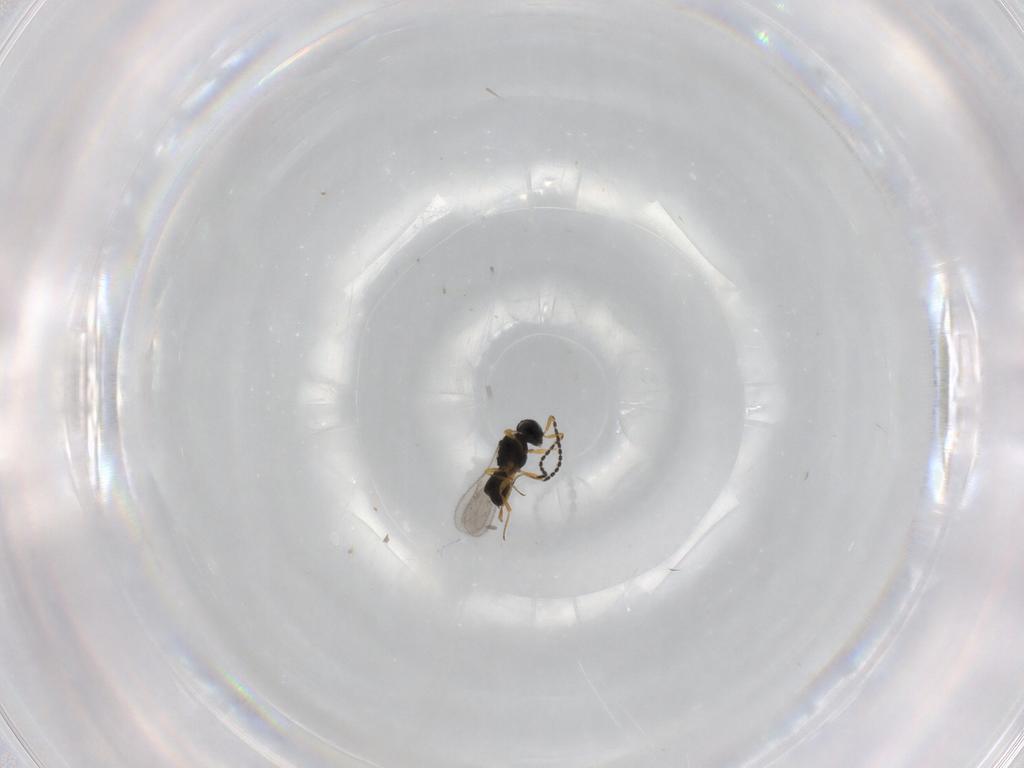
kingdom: Animalia
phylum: Arthropoda
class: Insecta
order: Hymenoptera
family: Scelionidae
